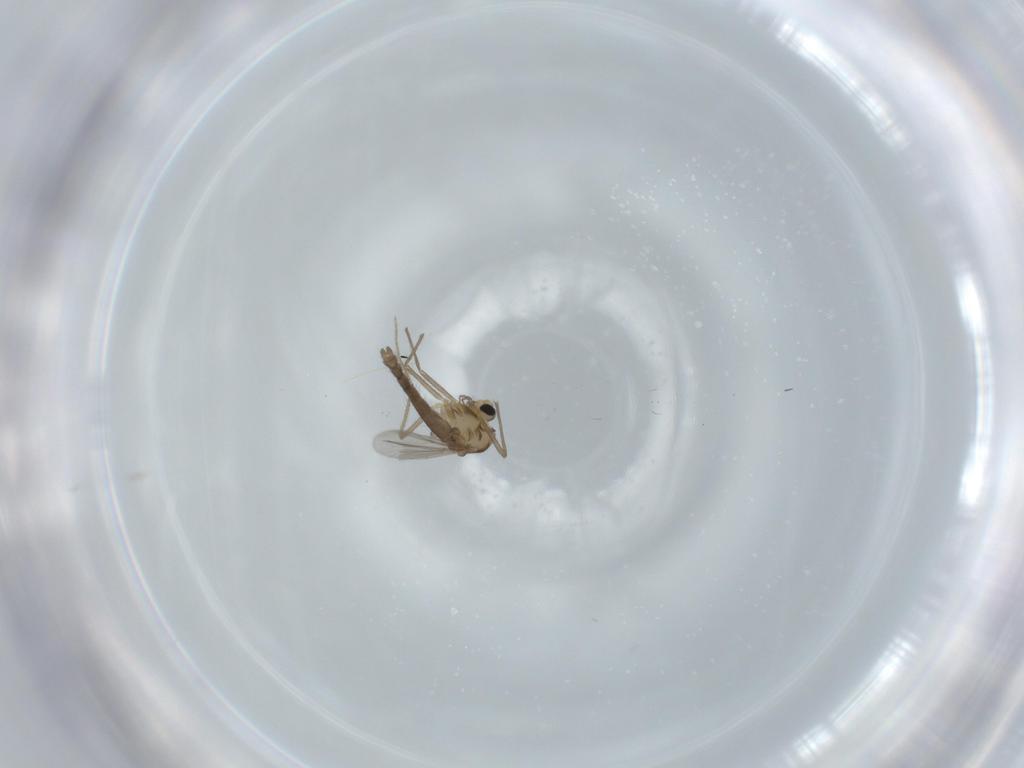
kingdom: Animalia
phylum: Arthropoda
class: Insecta
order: Diptera
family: Chironomidae
